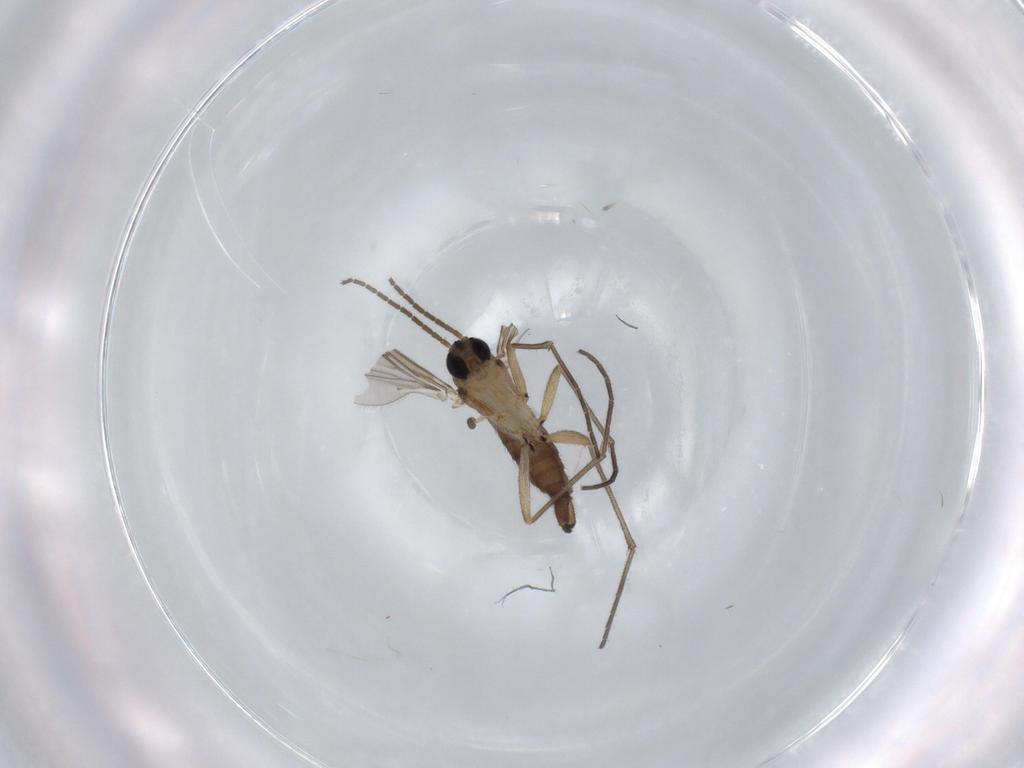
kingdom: Animalia
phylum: Arthropoda
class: Insecta
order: Diptera
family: Sciaridae
